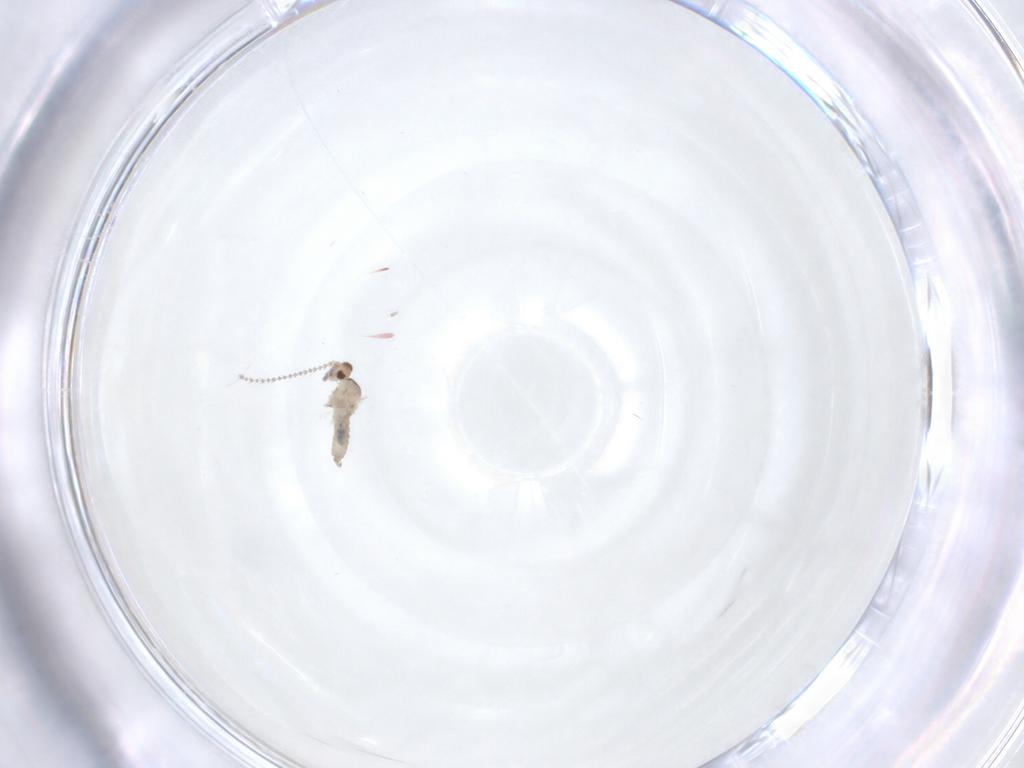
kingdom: Animalia
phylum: Arthropoda
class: Insecta
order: Diptera
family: Cecidomyiidae
